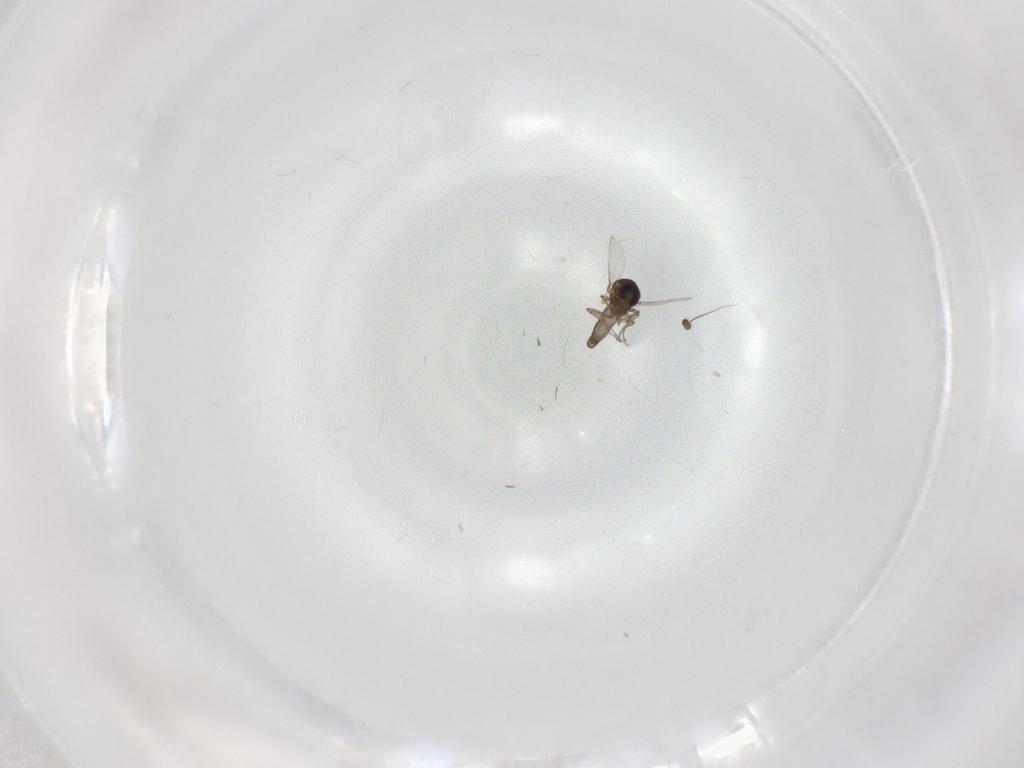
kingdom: Animalia
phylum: Arthropoda
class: Insecta
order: Diptera
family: Ceratopogonidae
